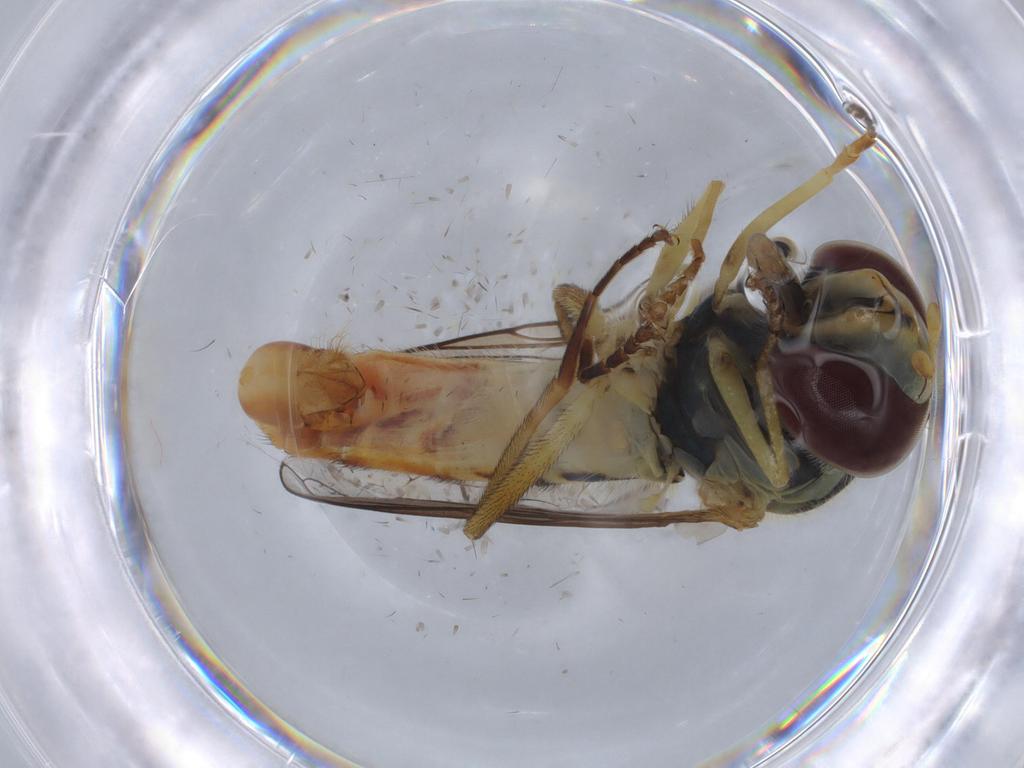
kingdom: Animalia
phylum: Arthropoda
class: Insecta
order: Diptera
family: Syrphidae
